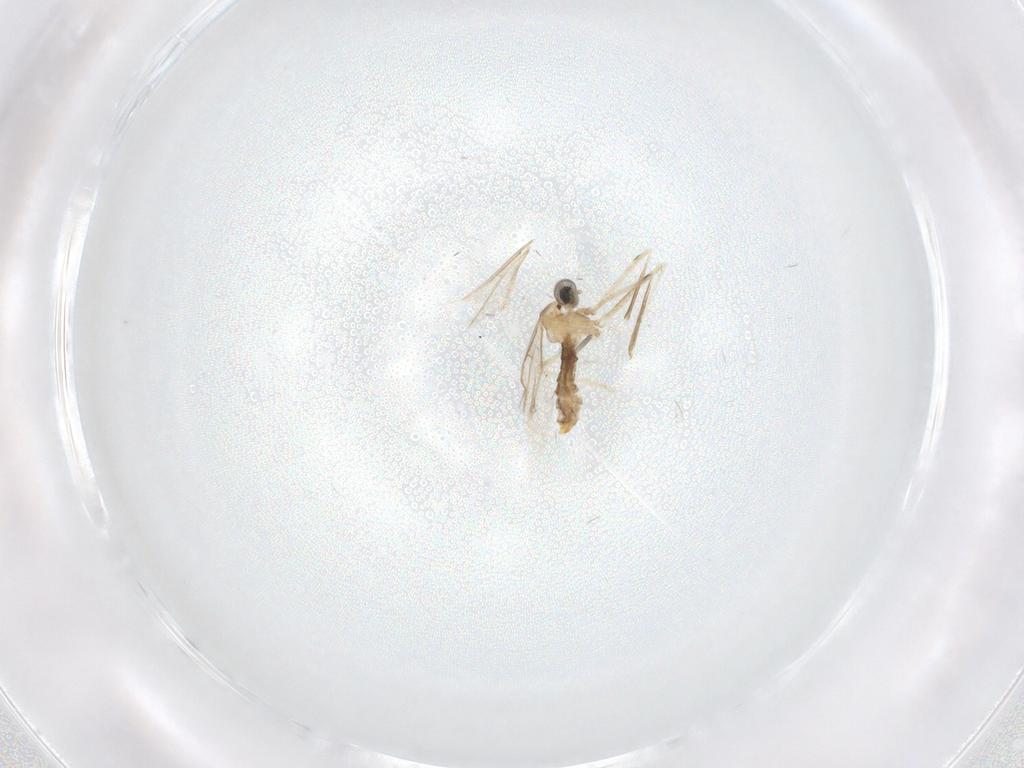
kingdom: Animalia
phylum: Arthropoda
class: Insecta
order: Diptera
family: Cecidomyiidae
